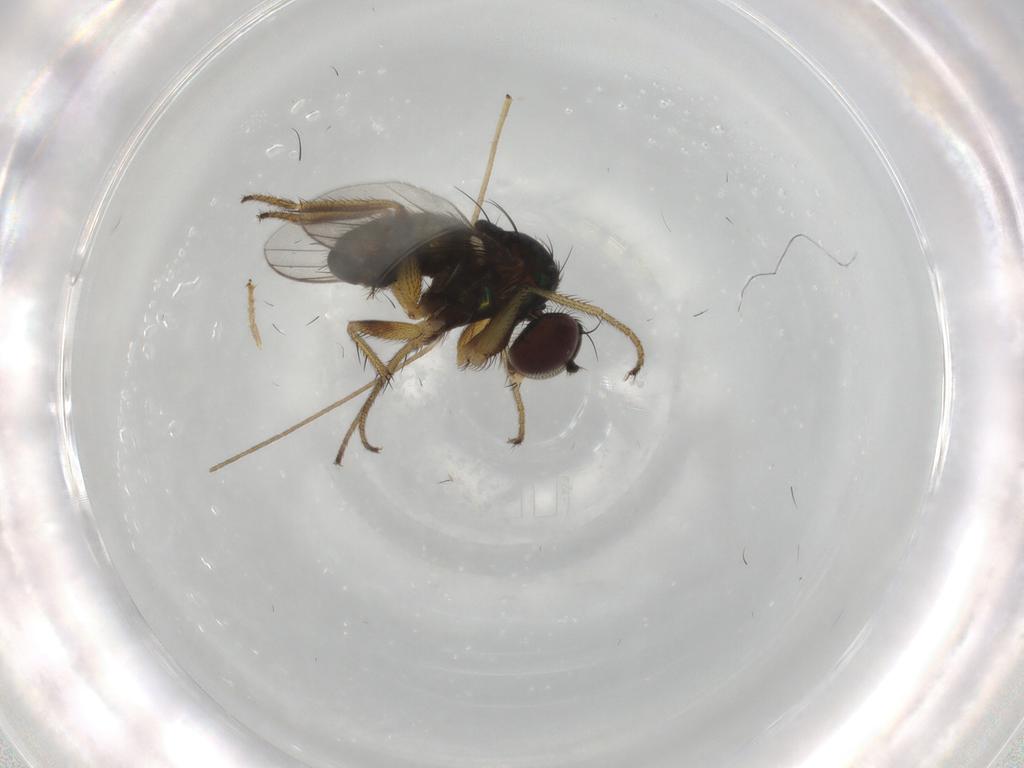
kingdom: Animalia
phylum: Arthropoda
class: Insecta
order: Diptera
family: Dolichopodidae
